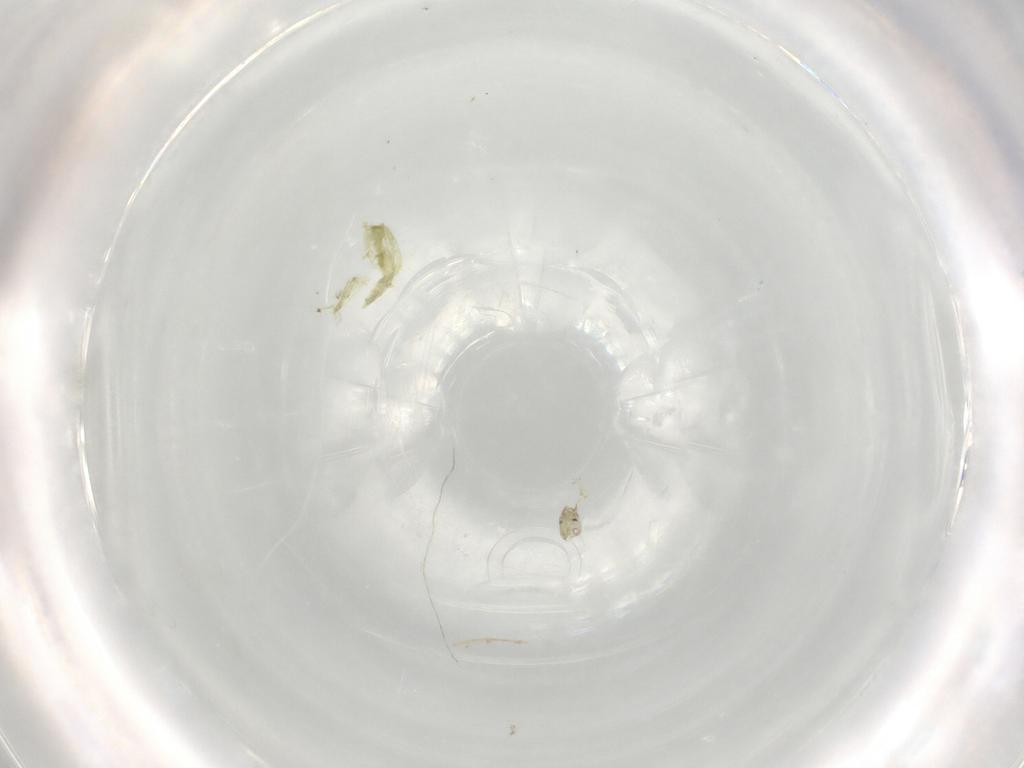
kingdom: Animalia
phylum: Arthropoda
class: Insecta
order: Diptera
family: Chironomidae
